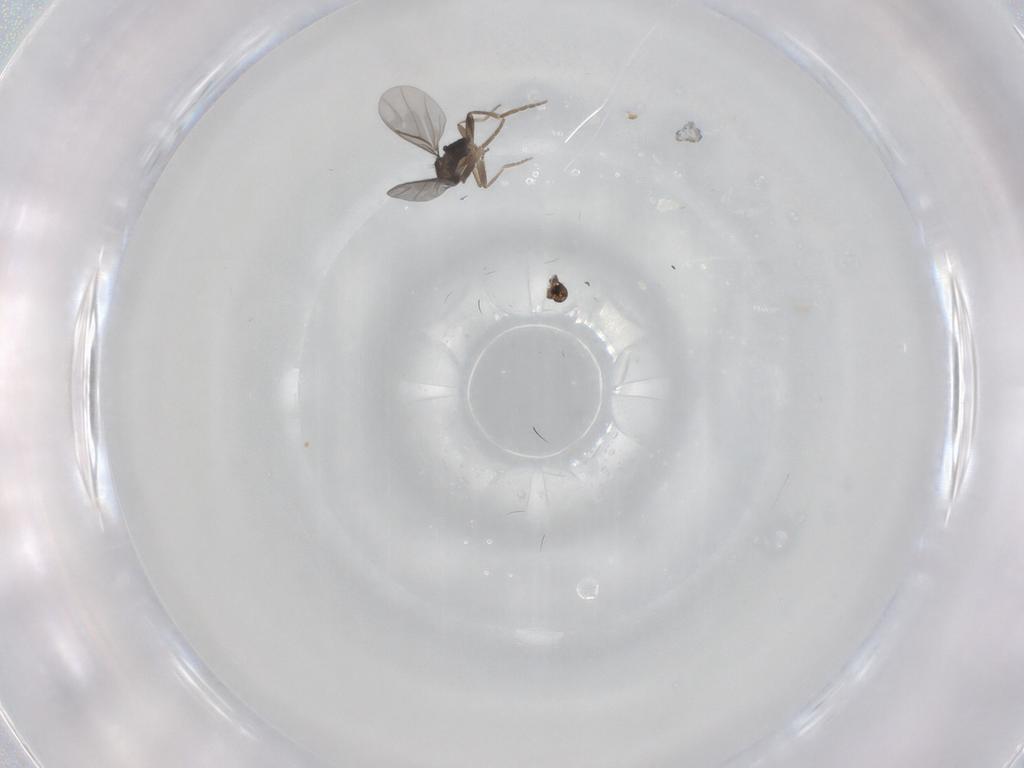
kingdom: Animalia
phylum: Arthropoda
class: Insecta
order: Diptera
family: Ditomyiidae
